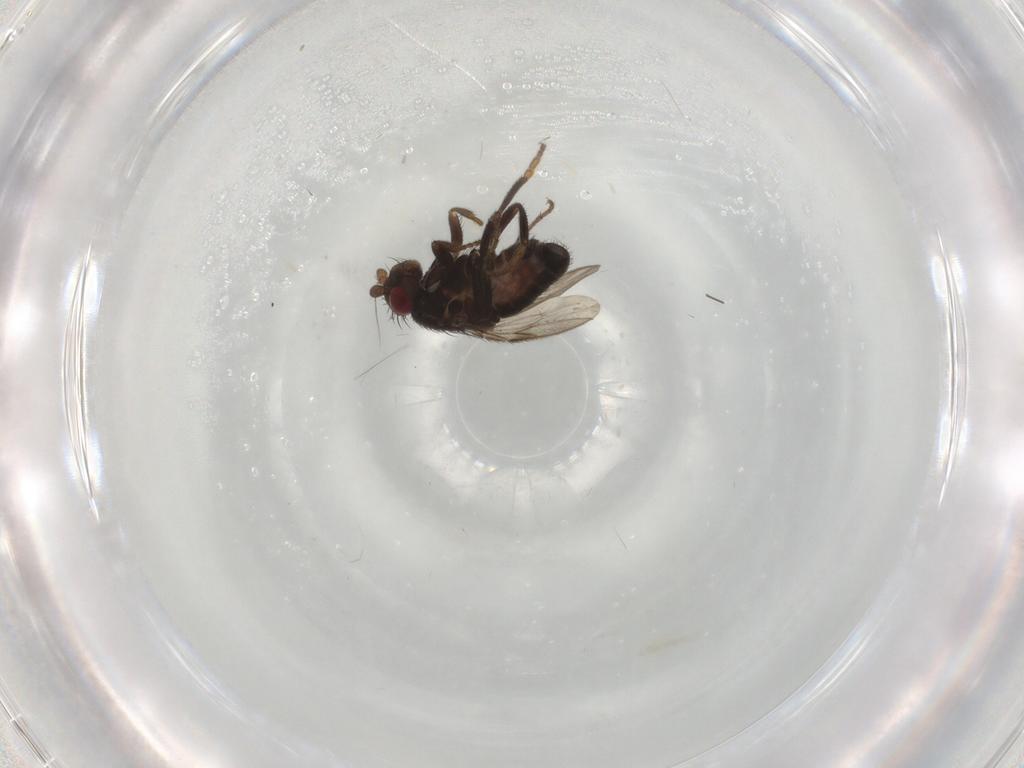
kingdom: Animalia
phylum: Arthropoda
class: Insecta
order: Diptera
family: Sphaeroceridae
